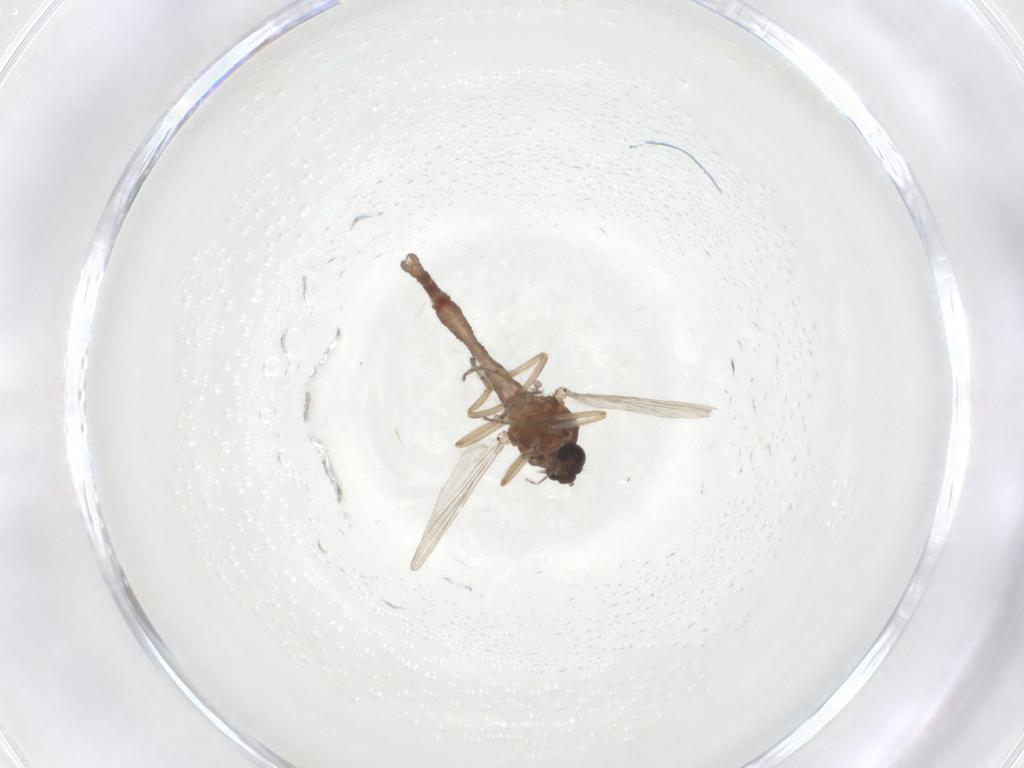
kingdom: Animalia
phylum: Arthropoda
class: Insecta
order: Diptera
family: Ceratopogonidae
